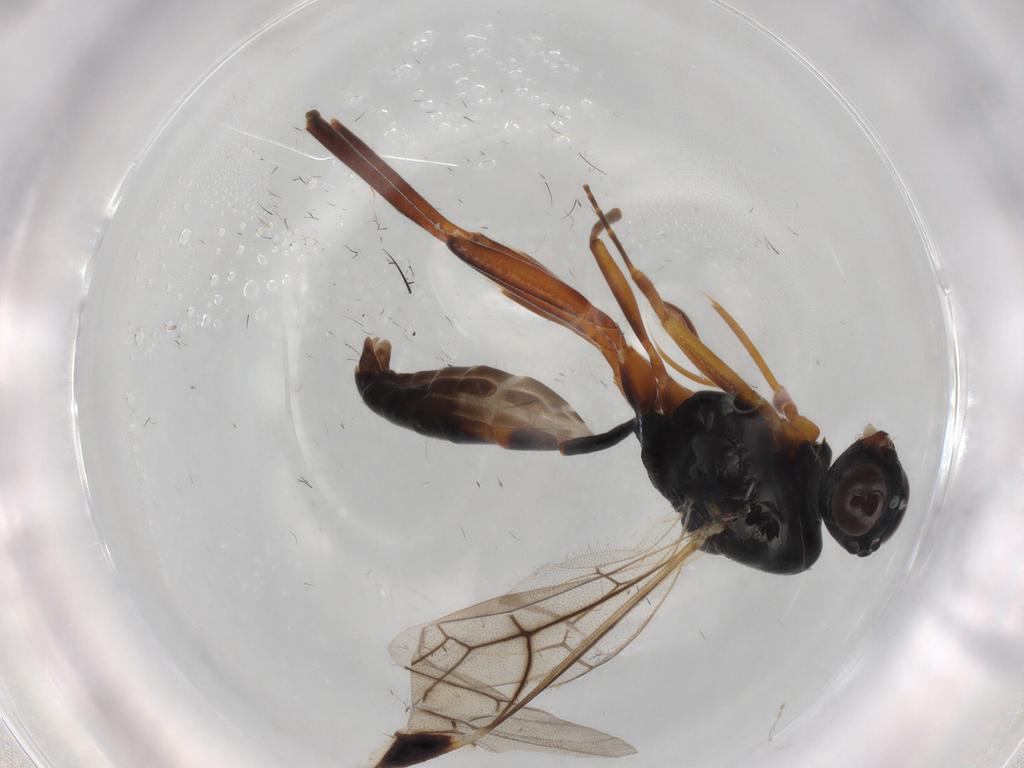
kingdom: Animalia
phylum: Arthropoda
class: Insecta
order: Hymenoptera
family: Ichneumonidae
